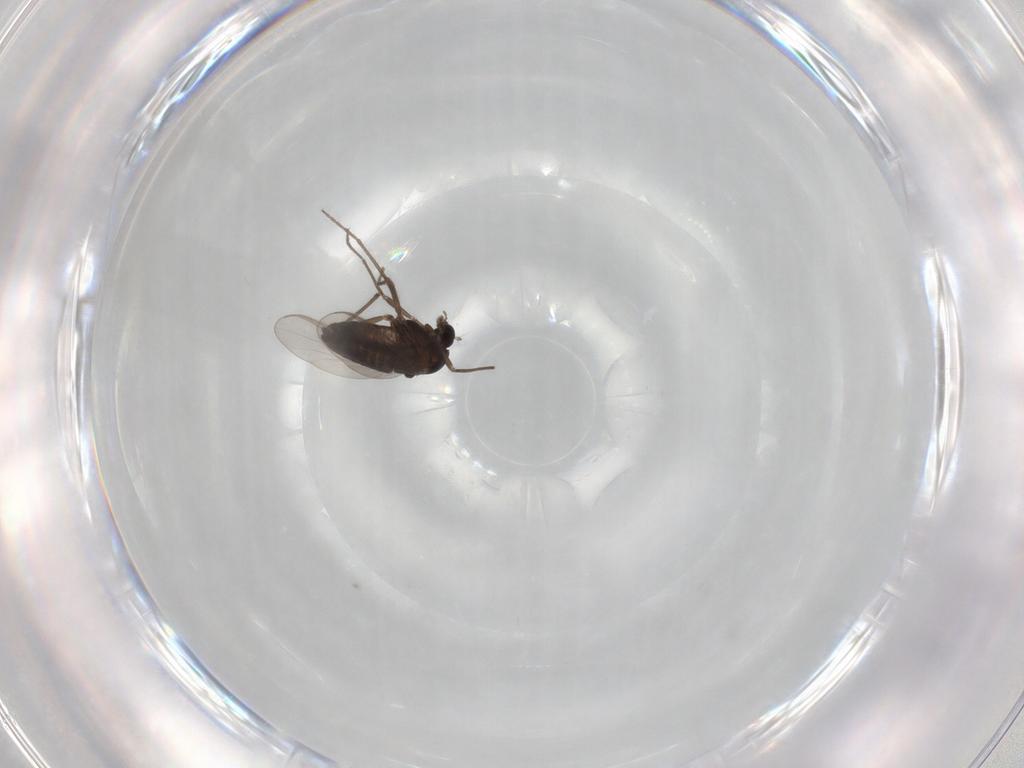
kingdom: Animalia
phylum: Arthropoda
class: Insecta
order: Diptera
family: Chironomidae
